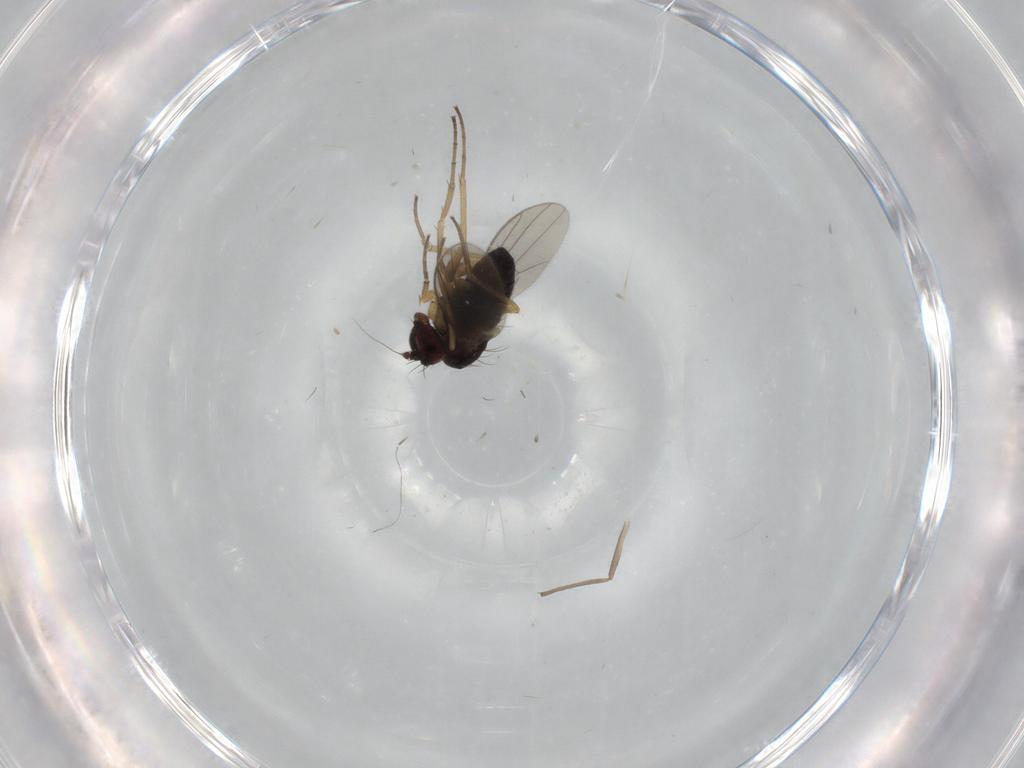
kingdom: Animalia
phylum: Arthropoda
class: Insecta
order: Diptera
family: Dolichopodidae
